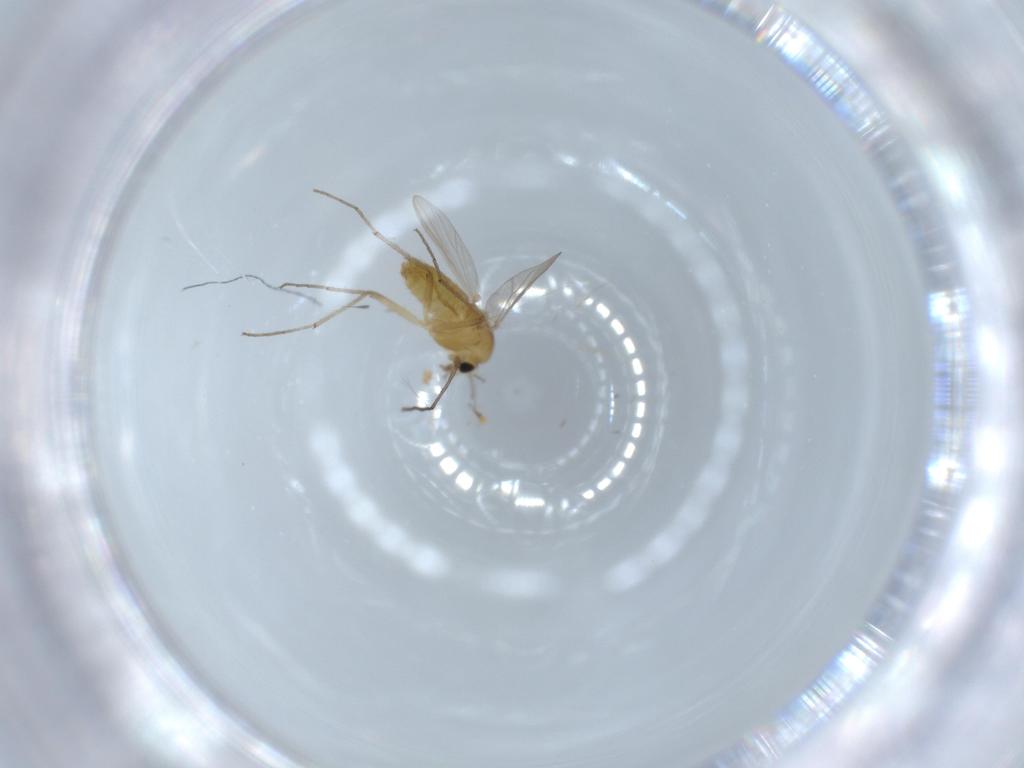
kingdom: Animalia
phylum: Arthropoda
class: Insecta
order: Diptera
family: Chironomidae
